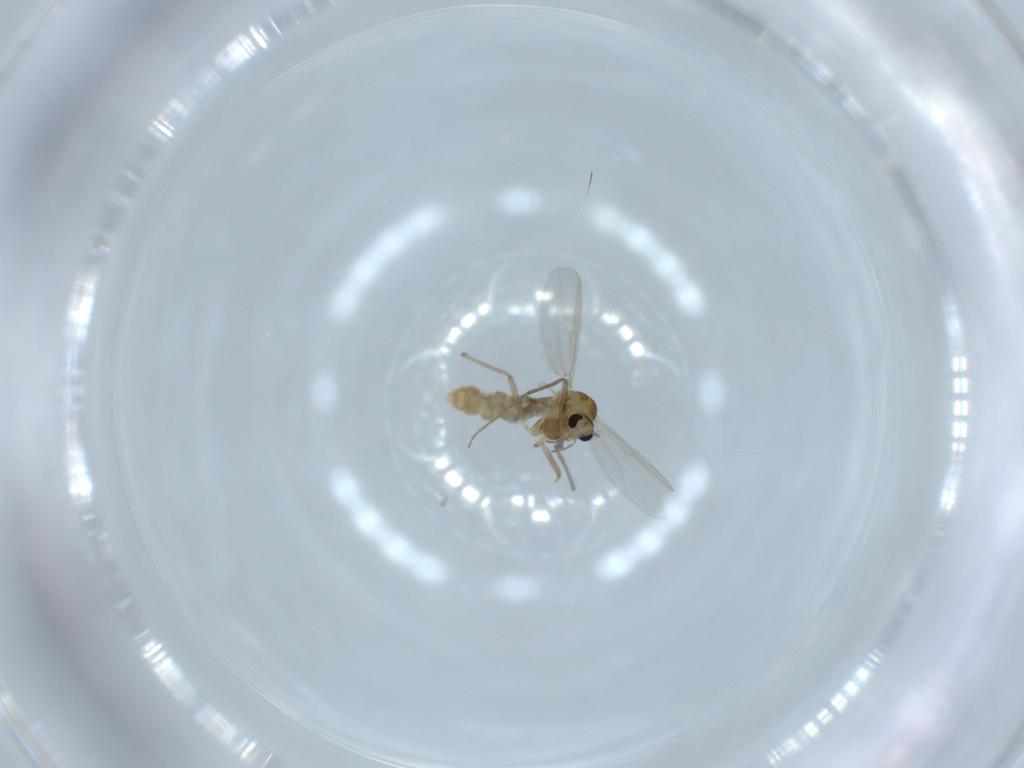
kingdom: Animalia
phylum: Arthropoda
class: Insecta
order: Diptera
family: Chironomidae
